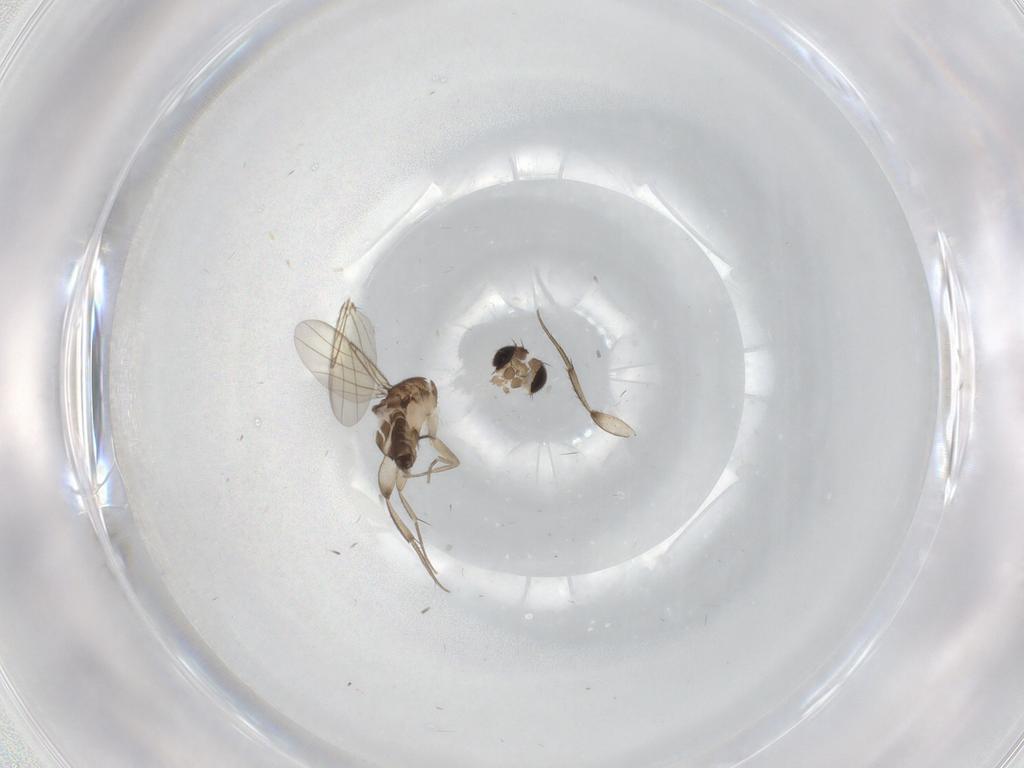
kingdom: Animalia
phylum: Arthropoda
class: Insecta
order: Diptera
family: Phoridae
